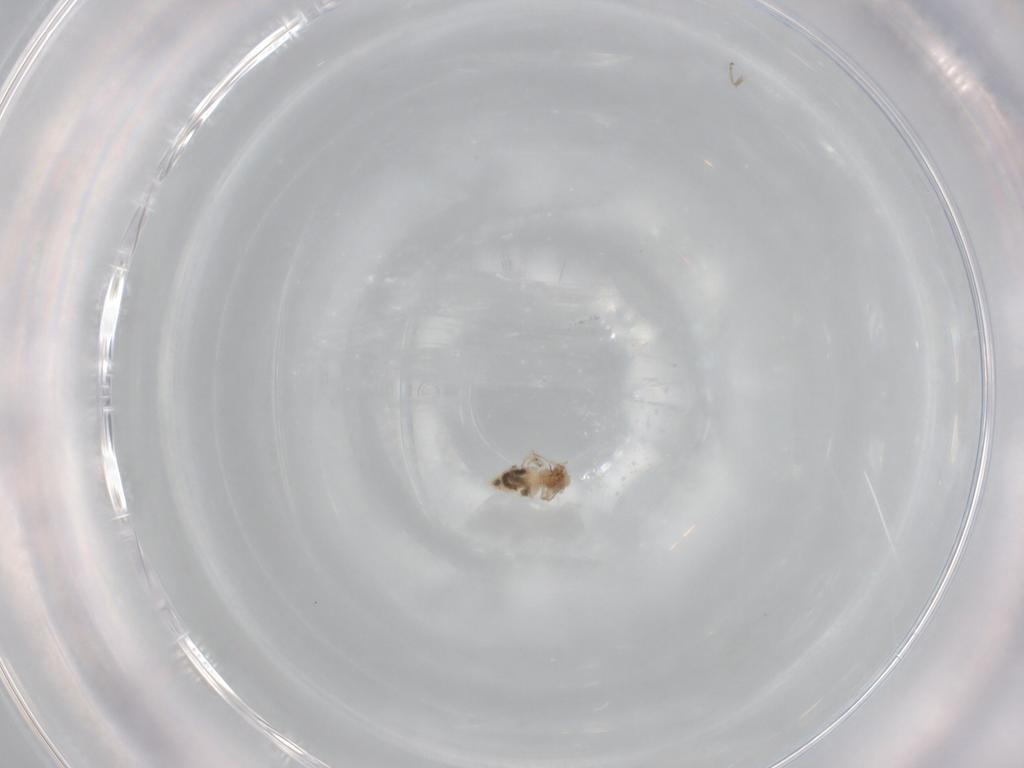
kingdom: Animalia
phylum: Arthropoda
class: Insecta
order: Psocodea
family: Stenopsocidae
